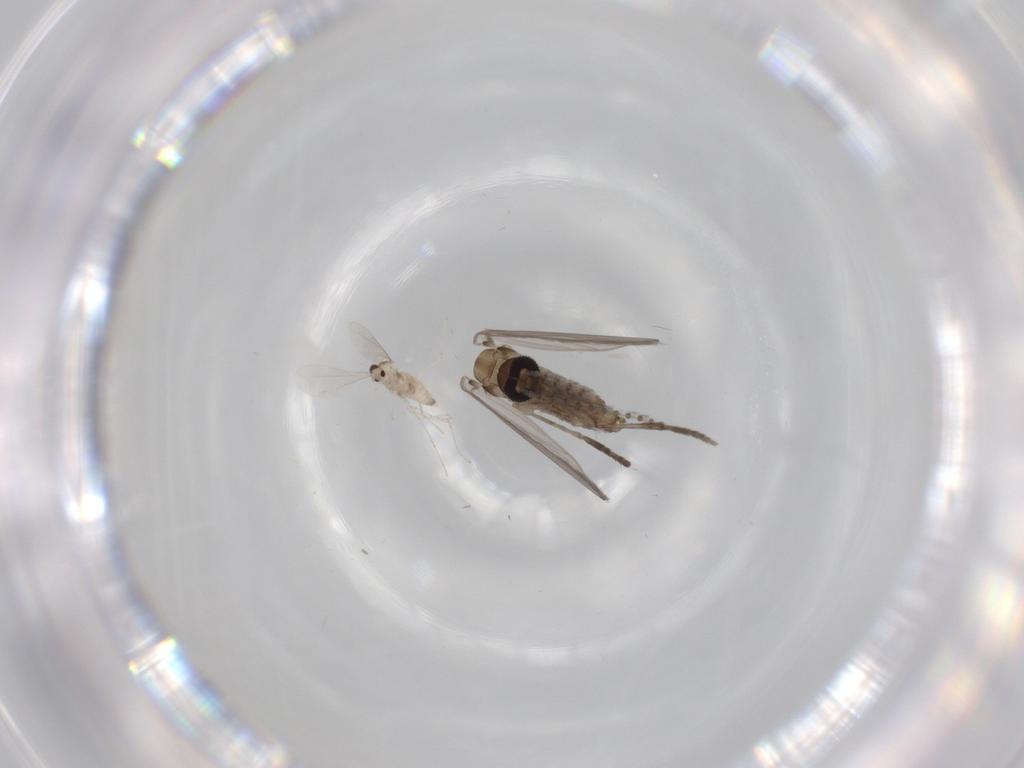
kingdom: Animalia
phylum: Arthropoda
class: Insecta
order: Diptera
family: Psychodidae
